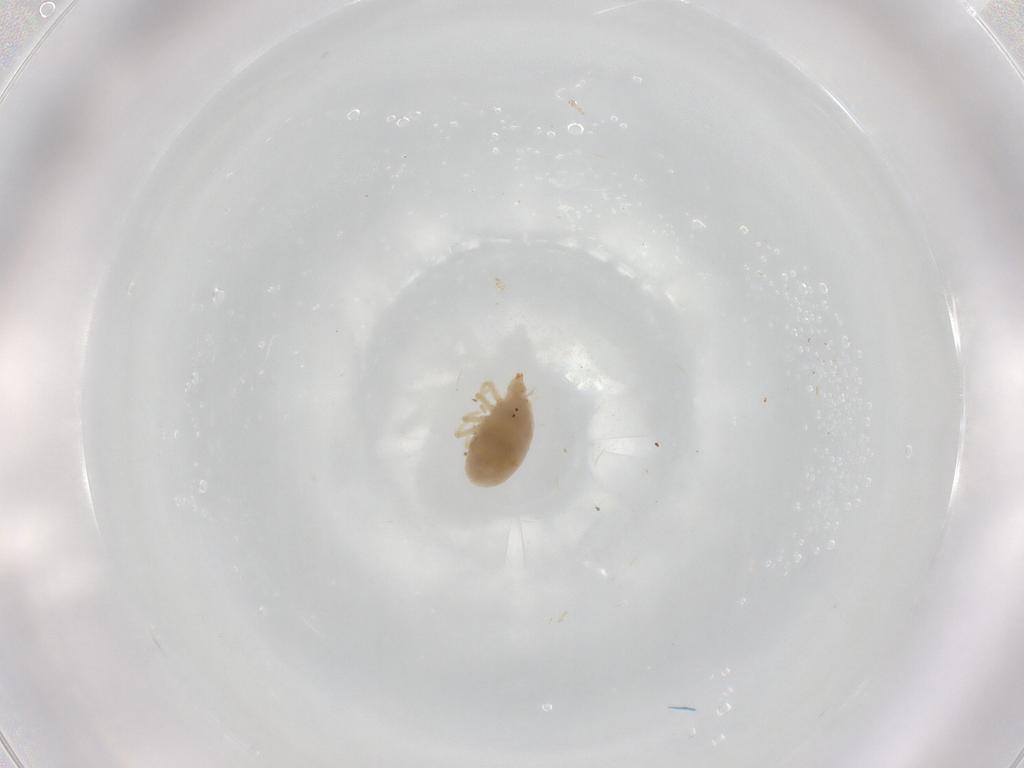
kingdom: Animalia
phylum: Arthropoda
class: Arachnida
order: Trombidiformes
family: Bdellidae
